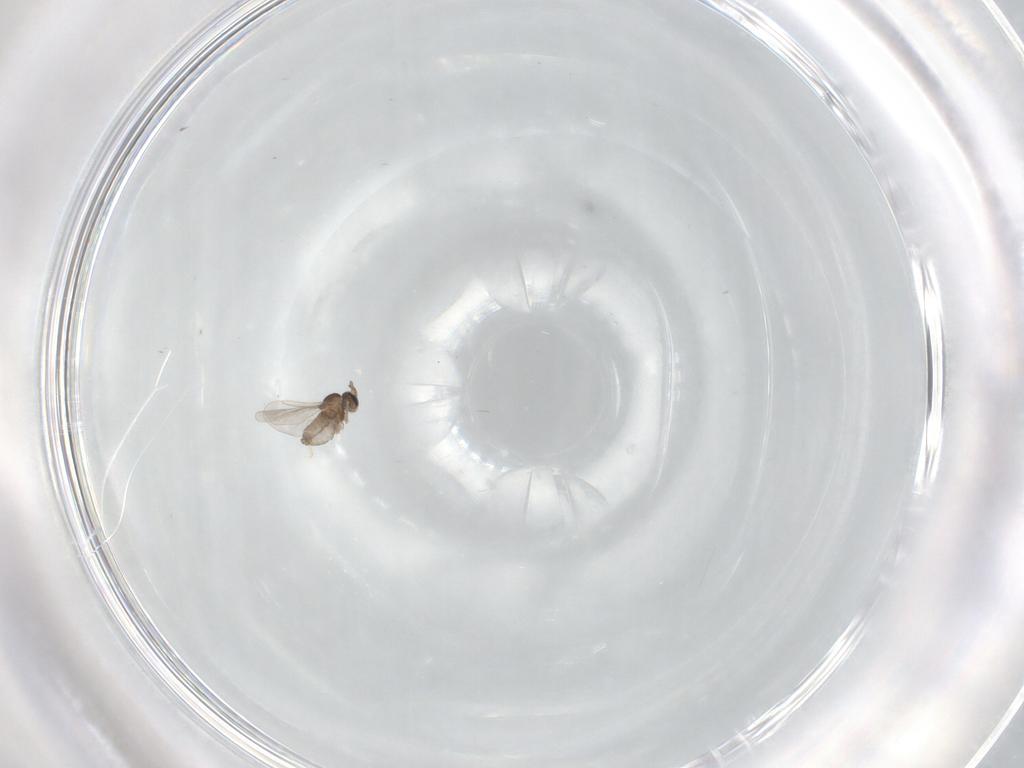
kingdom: Animalia
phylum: Arthropoda
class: Insecta
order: Diptera
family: Cecidomyiidae
